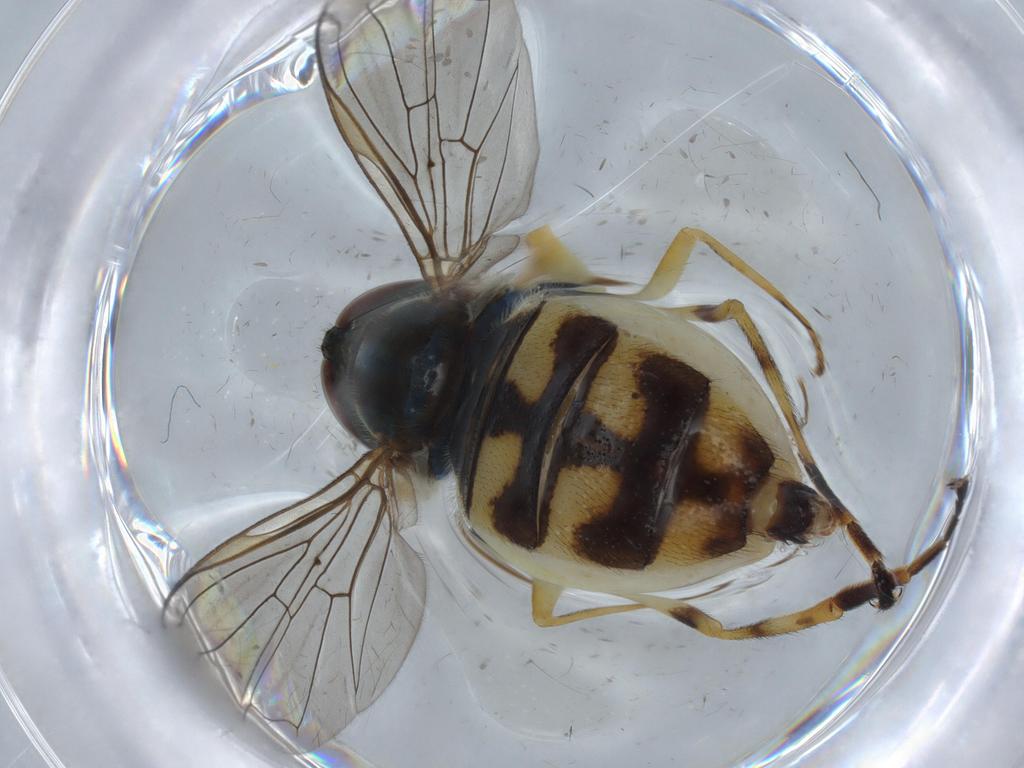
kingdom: Animalia
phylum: Arthropoda
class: Insecta
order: Diptera
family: Syrphidae
